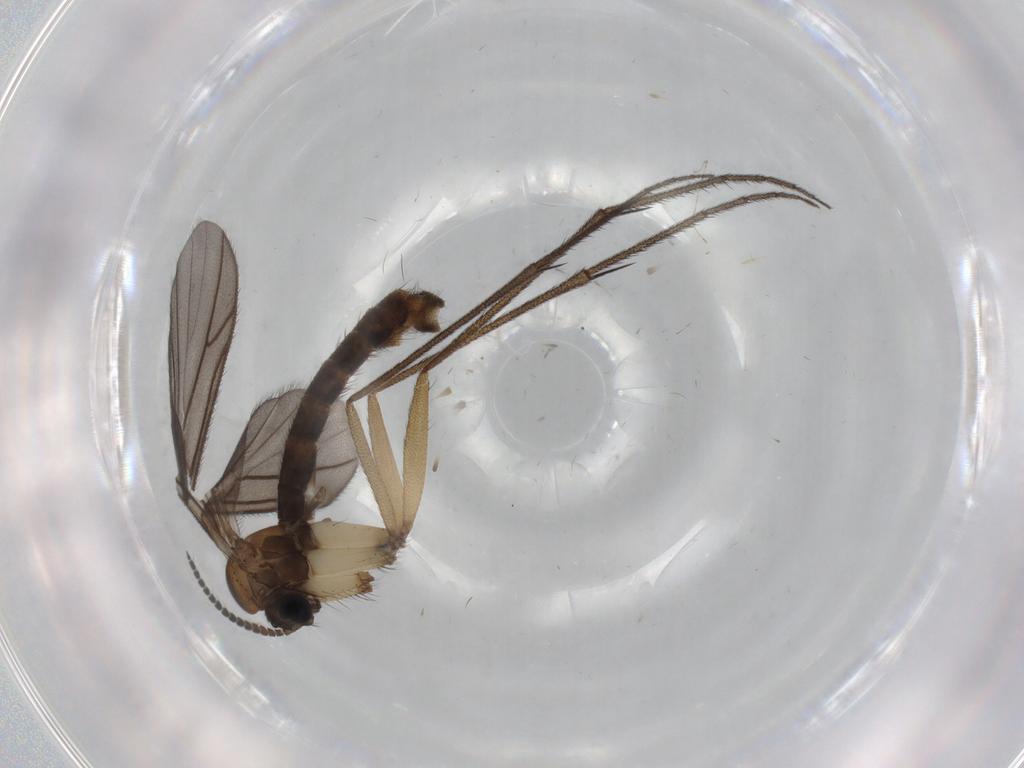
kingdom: Animalia
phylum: Arthropoda
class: Insecta
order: Diptera
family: Ditomyiidae
